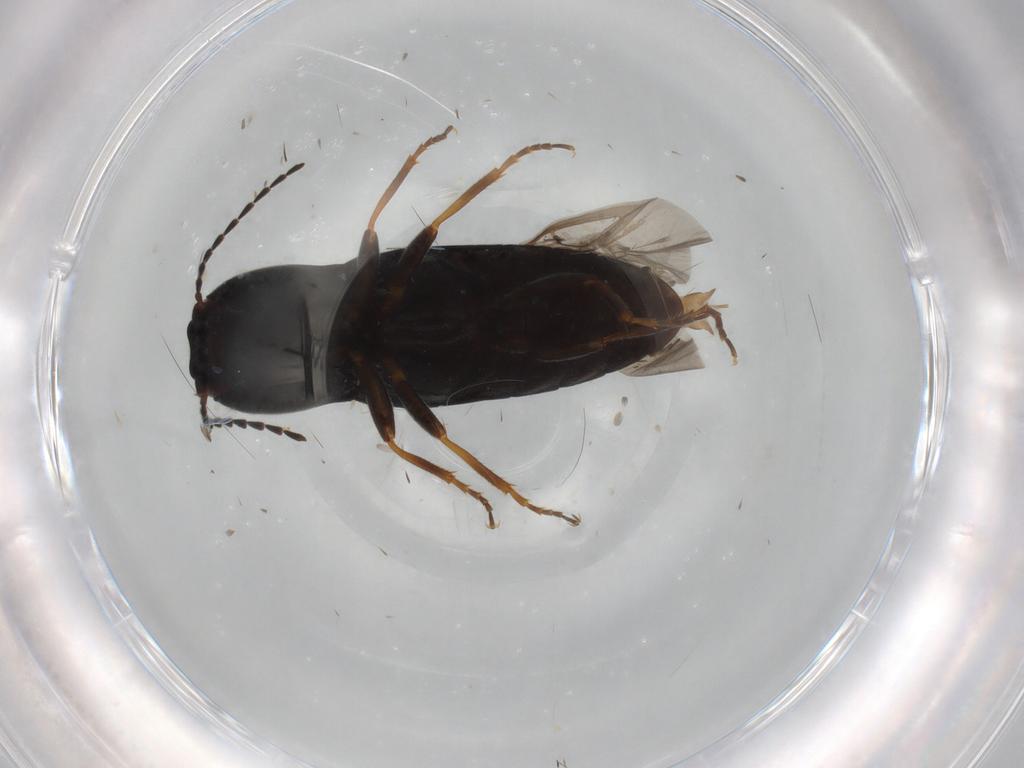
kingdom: Animalia
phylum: Arthropoda
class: Insecta
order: Coleoptera
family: Elateridae
